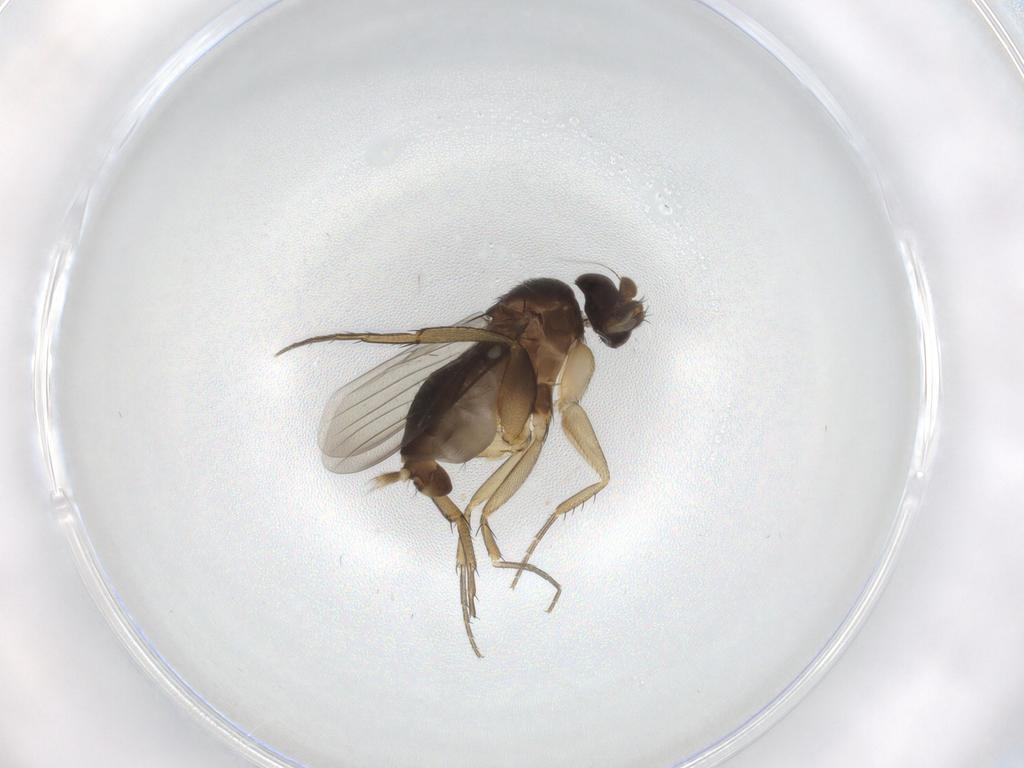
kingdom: Animalia
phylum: Arthropoda
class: Insecta
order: Diptera
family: Phoridae
